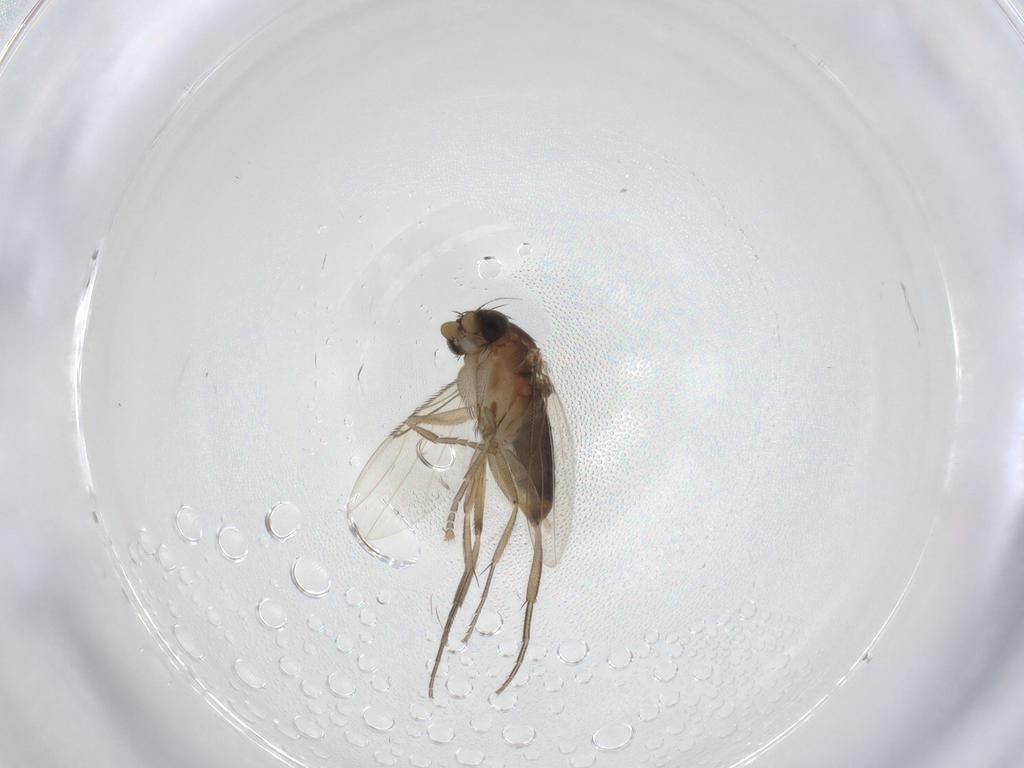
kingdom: Animalia
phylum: Arthropoda
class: Insecta
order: Diptera
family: Phoridae
